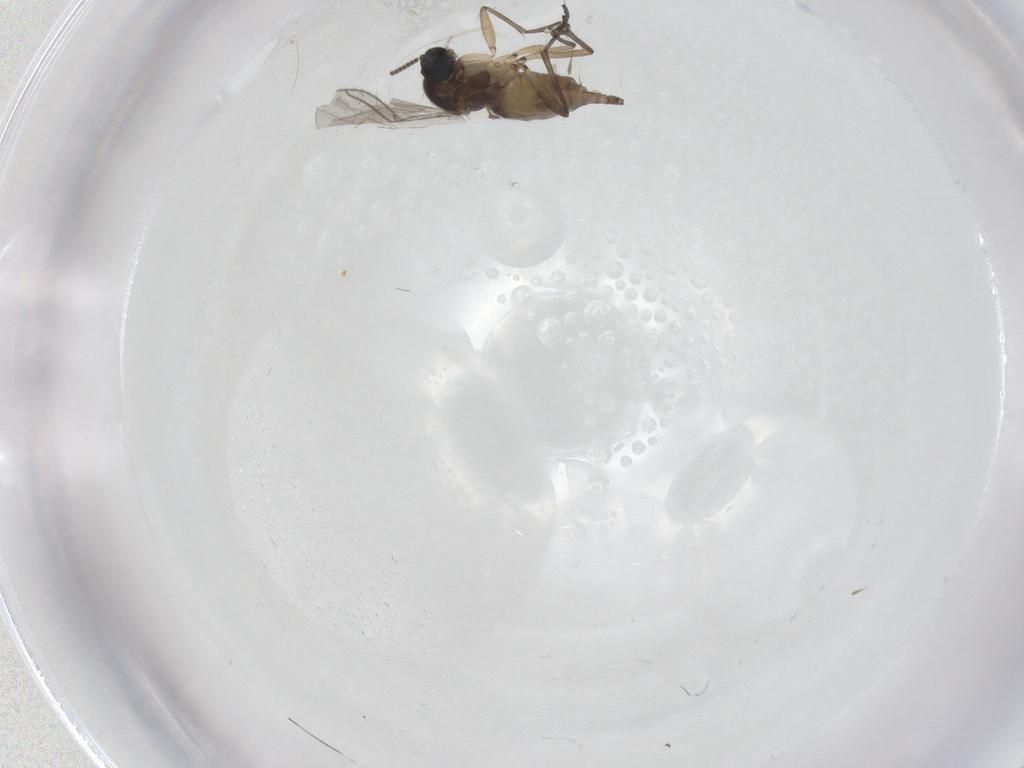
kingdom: Animalia
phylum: Arthropoda
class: Insecta
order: Diptera
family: Sciaridae
